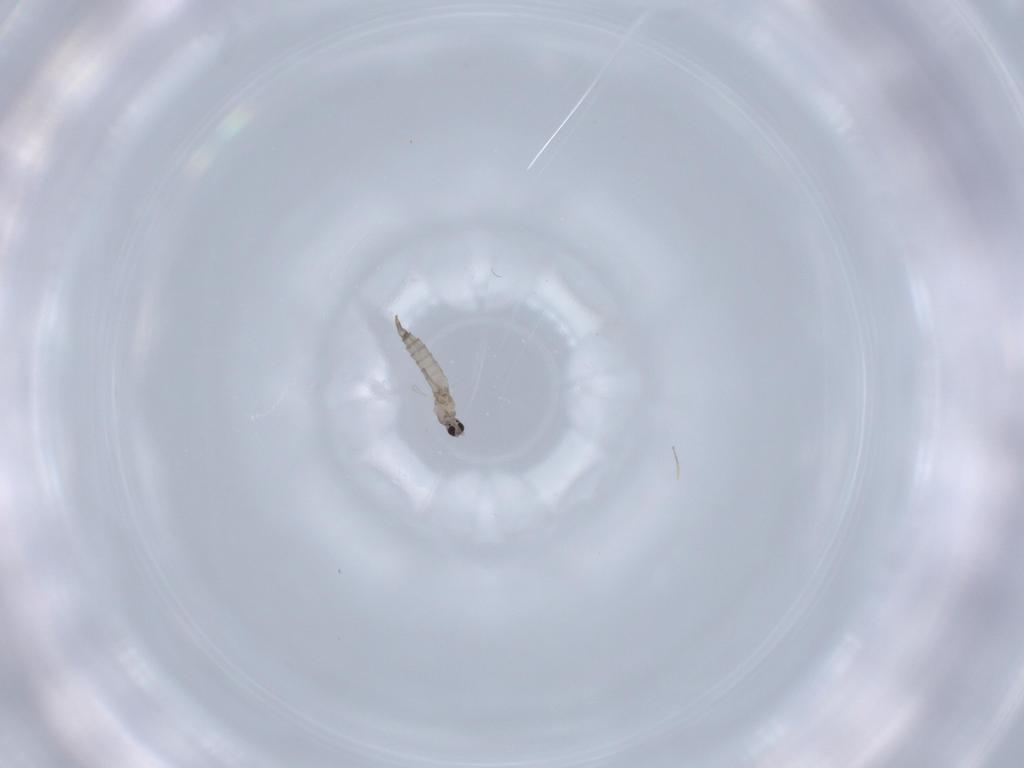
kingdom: Animalia
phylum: Arthropoda
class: Insecta
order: Diptera
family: Cecidomyiidae
